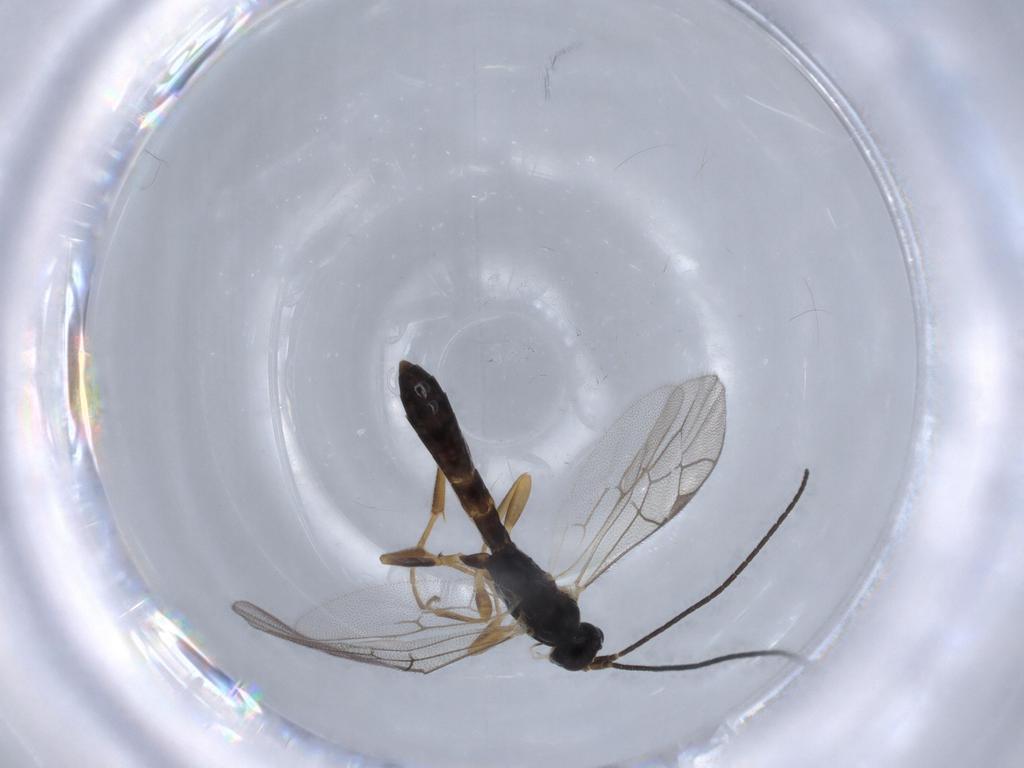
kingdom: Animalia
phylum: Arthropoda
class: Insecta
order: Hymenoptera
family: Ichneumonidae
